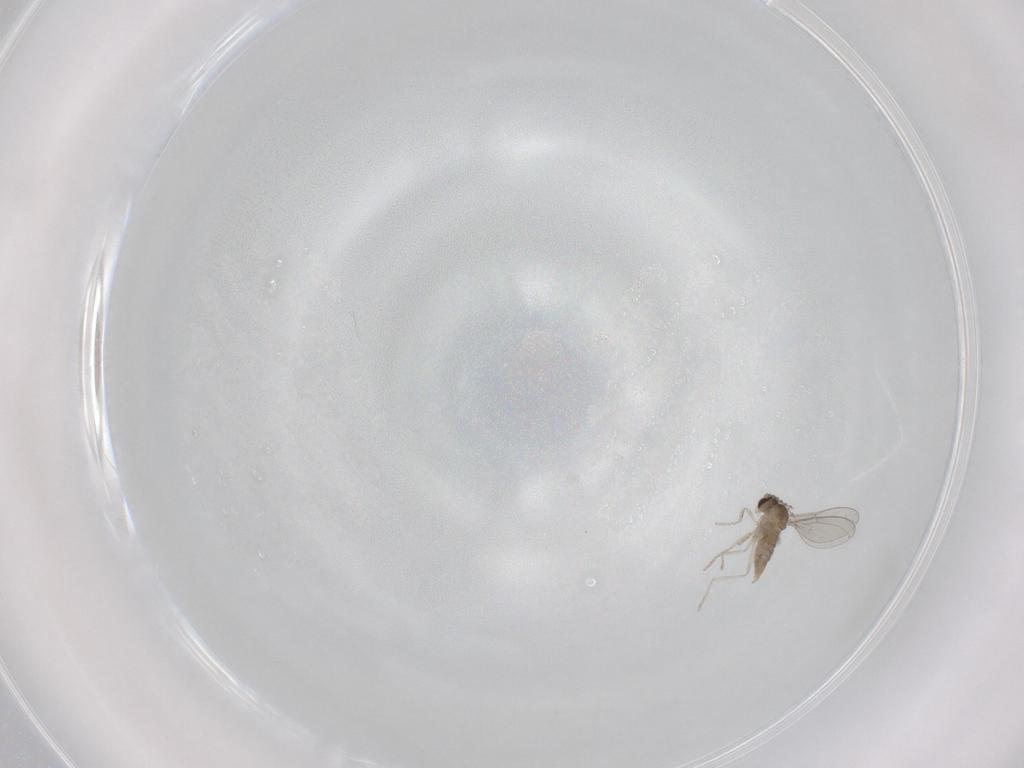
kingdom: Animalia
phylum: Arthropoda
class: Insecta
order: Diptera
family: Cecidomyiidae
